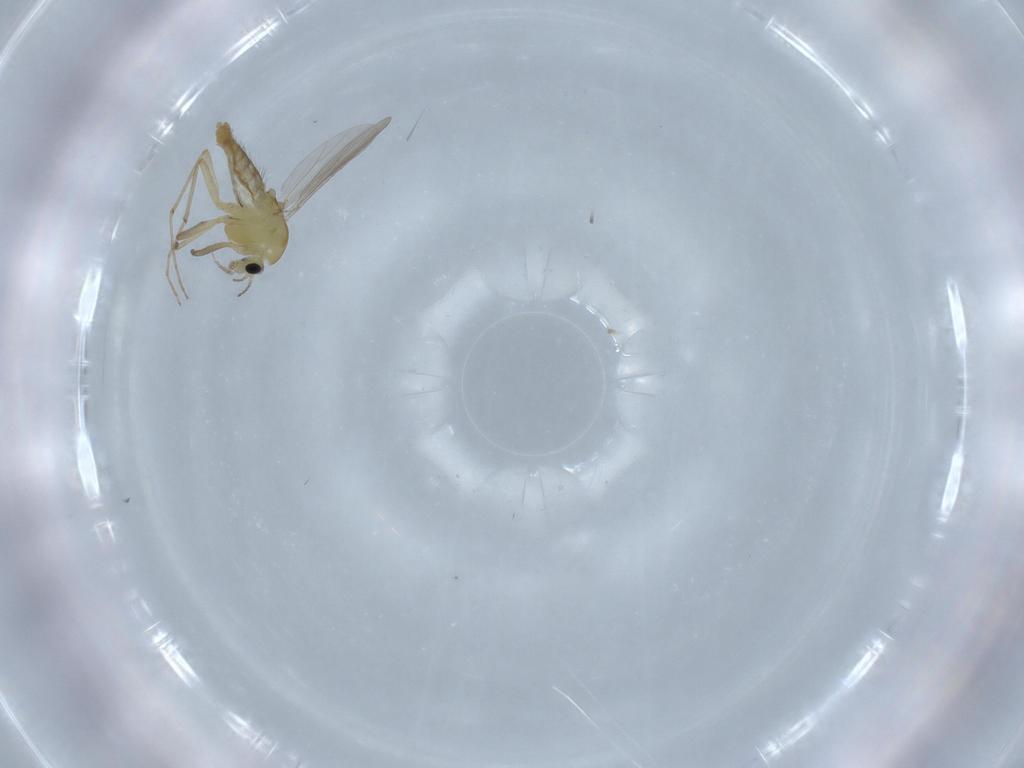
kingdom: Animalia
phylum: Arthropoda
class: Insecta
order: Diptera
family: Chironomidae
